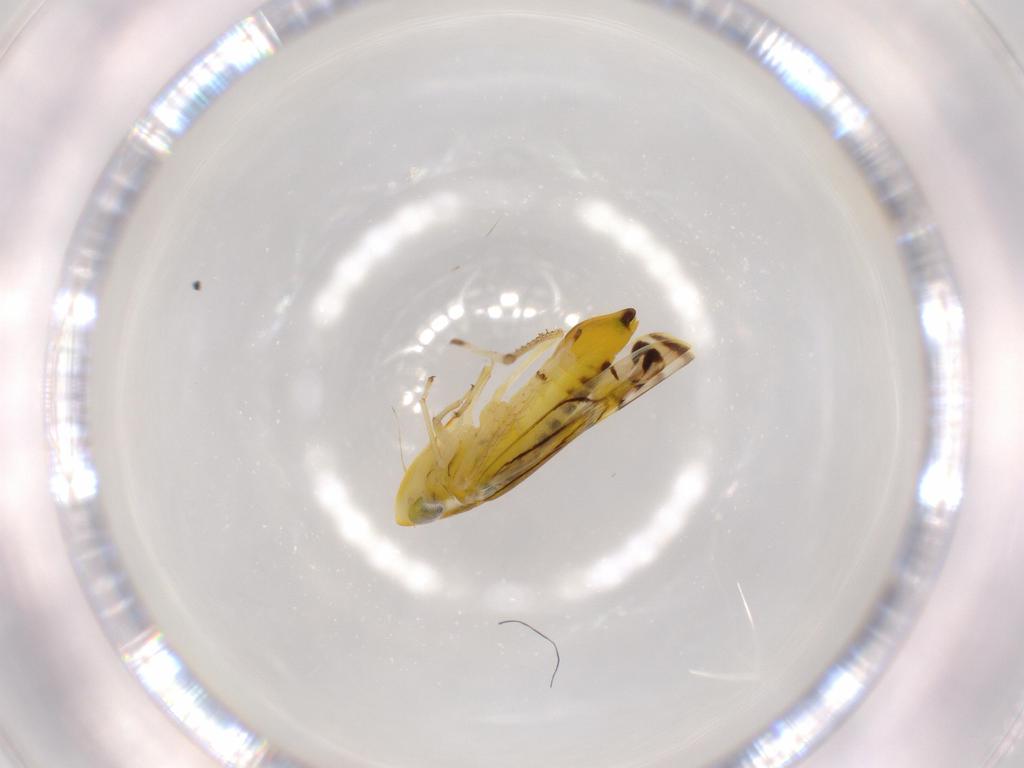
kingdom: Animalia
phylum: Arthropoda
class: Insecta
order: Hemiptera
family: Cicadellidae
